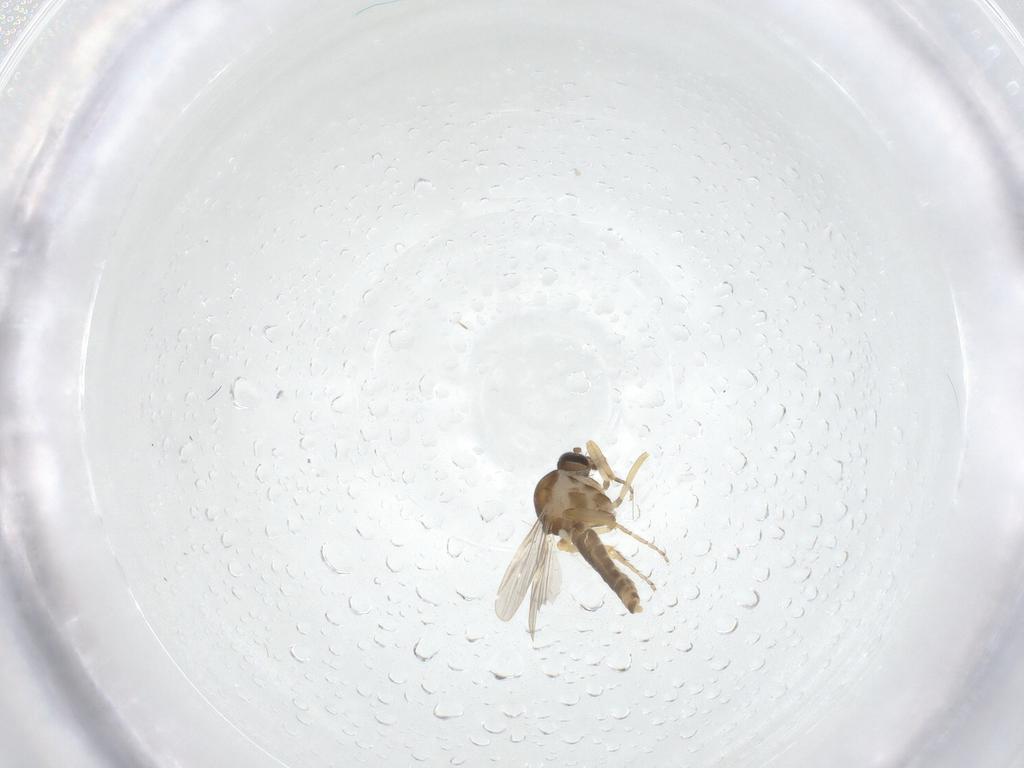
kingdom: Animalia
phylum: Arthropoda
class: Insecta
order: Diptera
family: Ceratopogonidae
